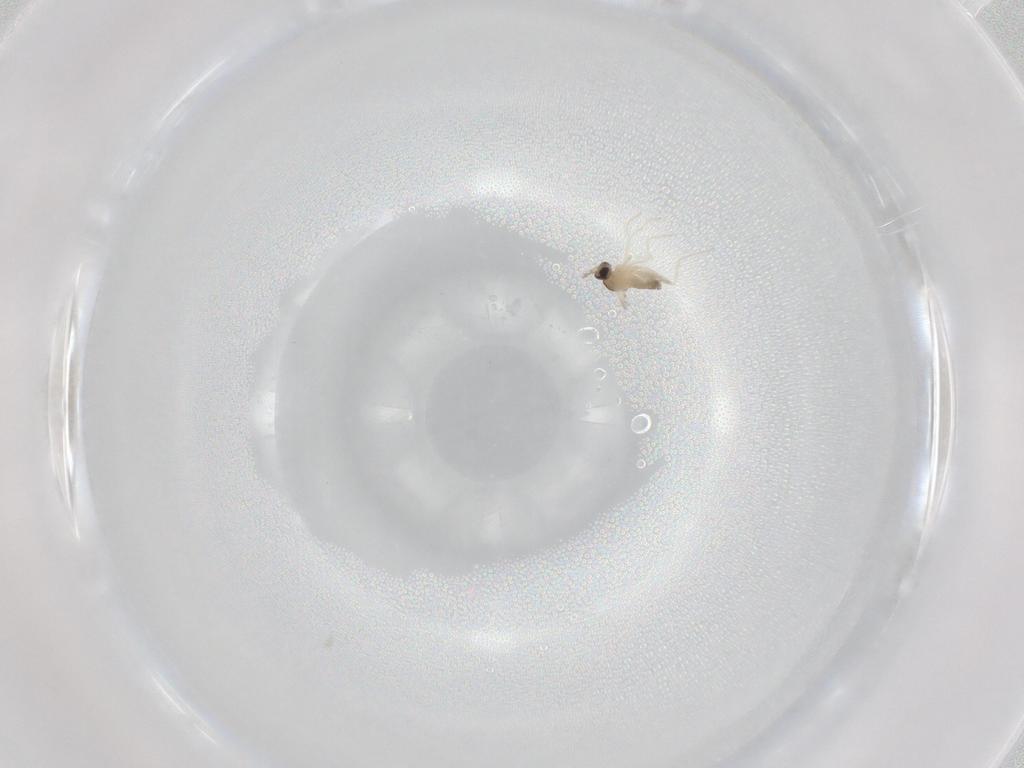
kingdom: Animalia
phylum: Arthropoda
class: Insecta
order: Diptera
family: Cecidomyiidae
